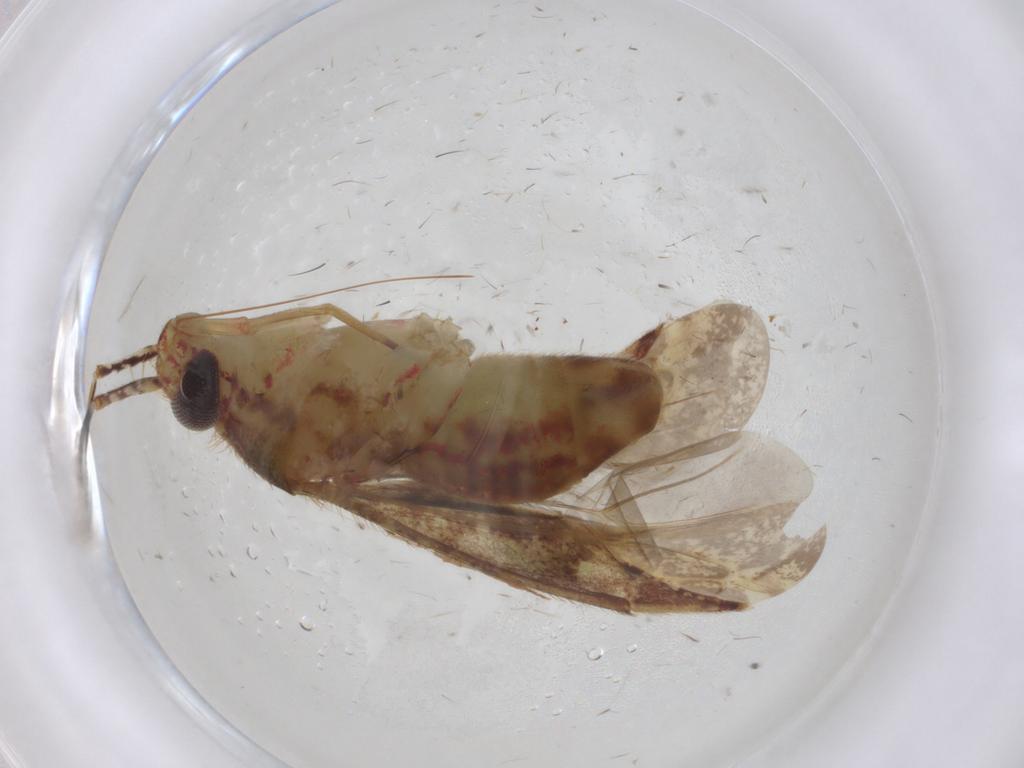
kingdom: Animalia
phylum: Arthropoda
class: Insecta
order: Hemiptera
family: Miridae
